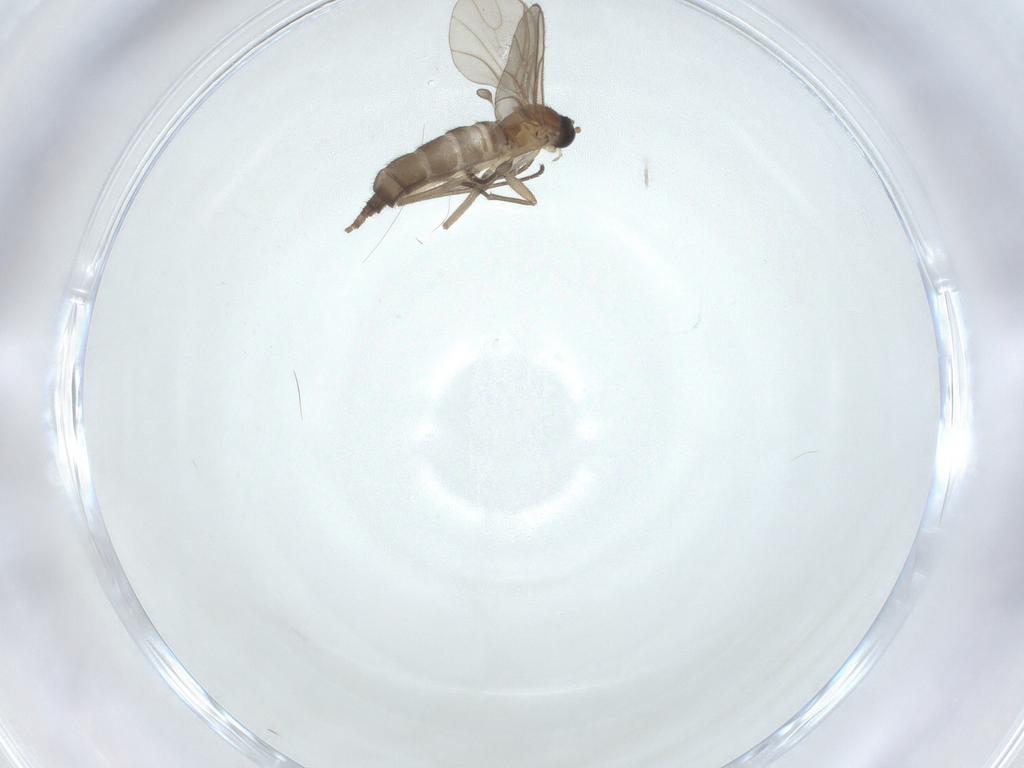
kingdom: Animalia
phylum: Arthropoda
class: Insecta
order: Diptera
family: Sciaridae
